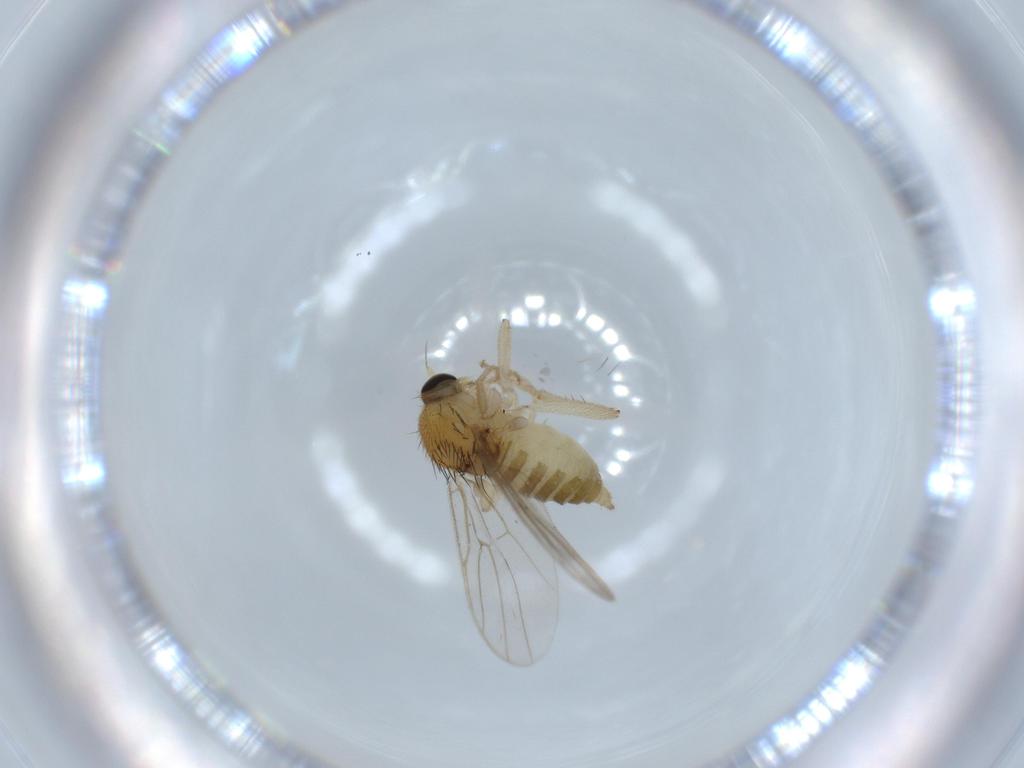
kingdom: Animalia
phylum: Arthropoda
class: Insecta
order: Diptera
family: Hybotidae
